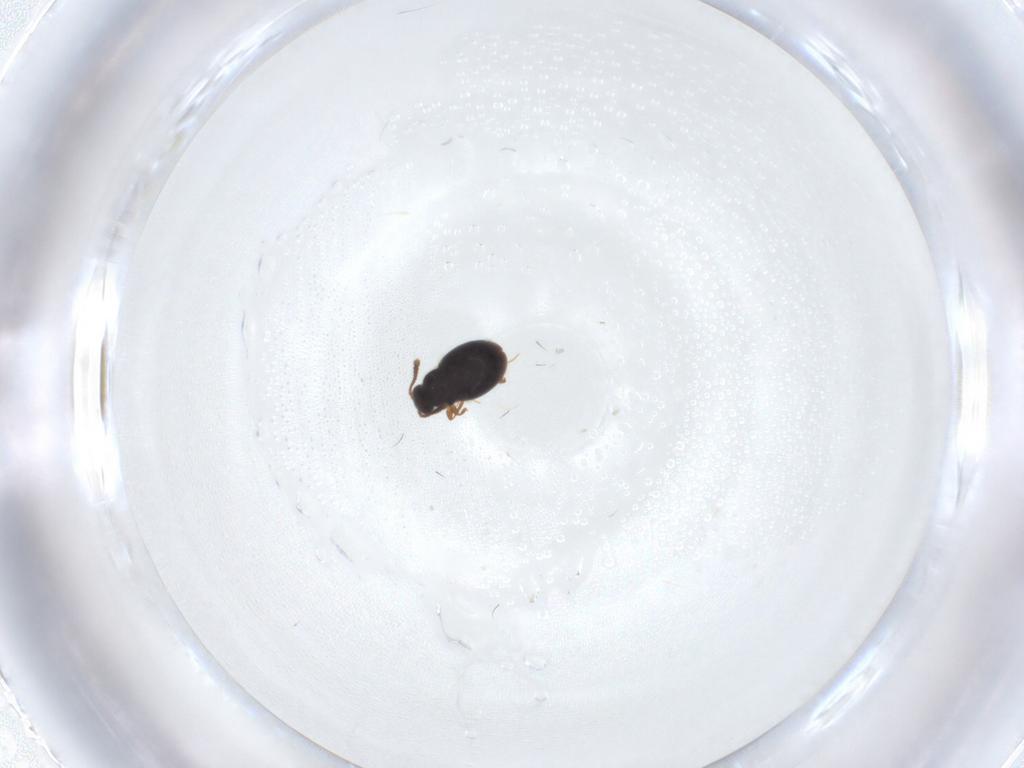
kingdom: Animalia
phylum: Arthropoda
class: Insecta
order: Coleoptera
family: Staphylinidae
